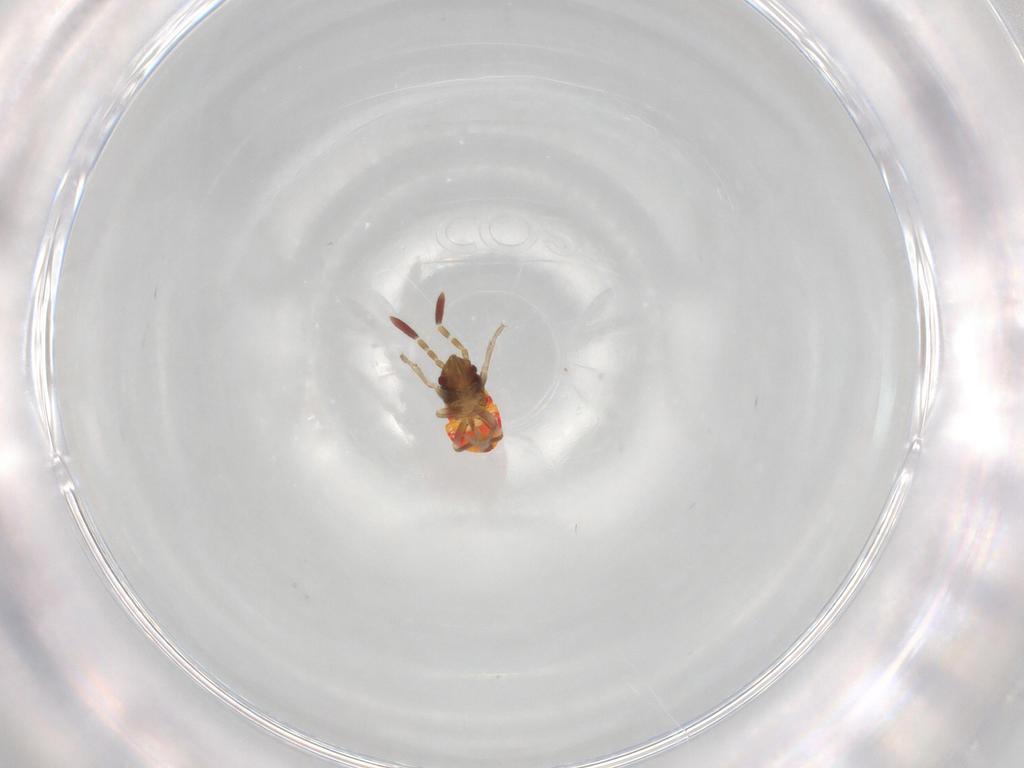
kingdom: Animalia
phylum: Arthropoda
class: Insecta
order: Hemiptera
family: Rhyparochromidae
